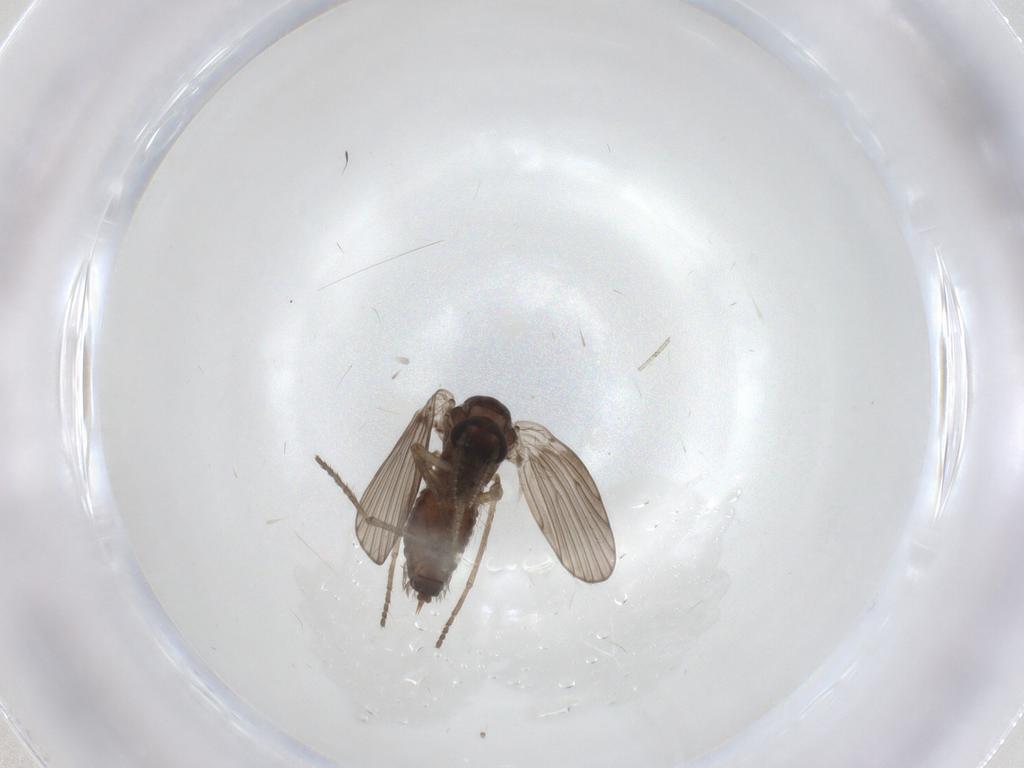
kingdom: Animalia
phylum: Arthropoda
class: Insecta
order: Diptera
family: Psychodidae
